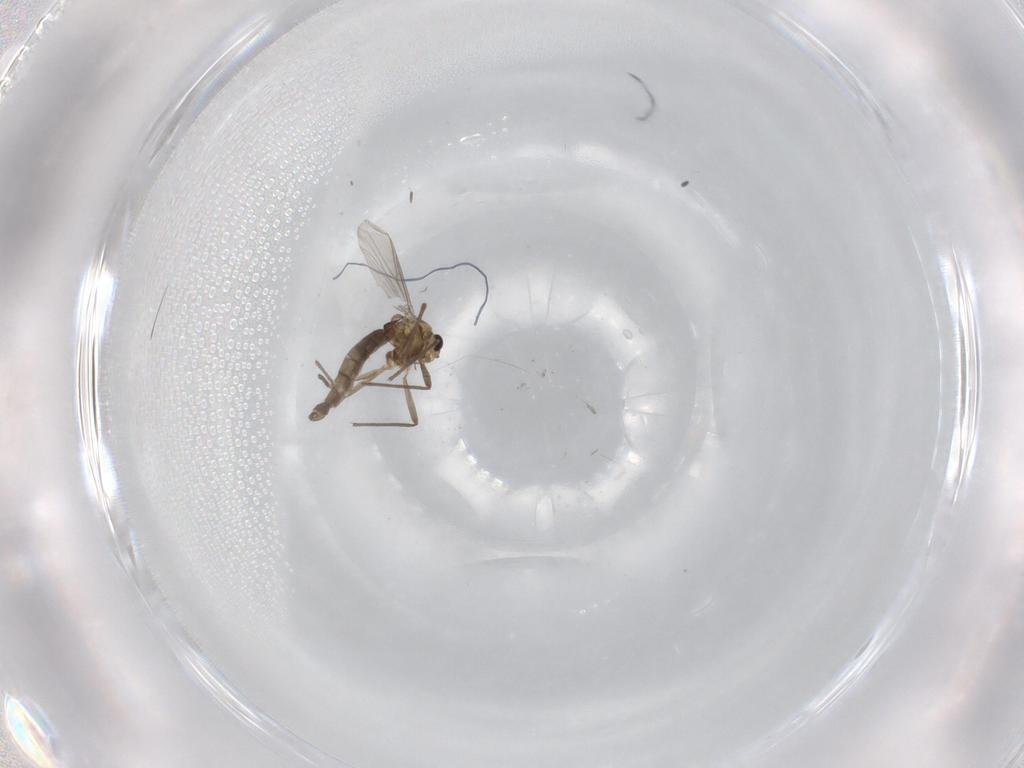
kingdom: Animalia
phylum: Arthropoda
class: Insecta
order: Diptera
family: Chironomidae
